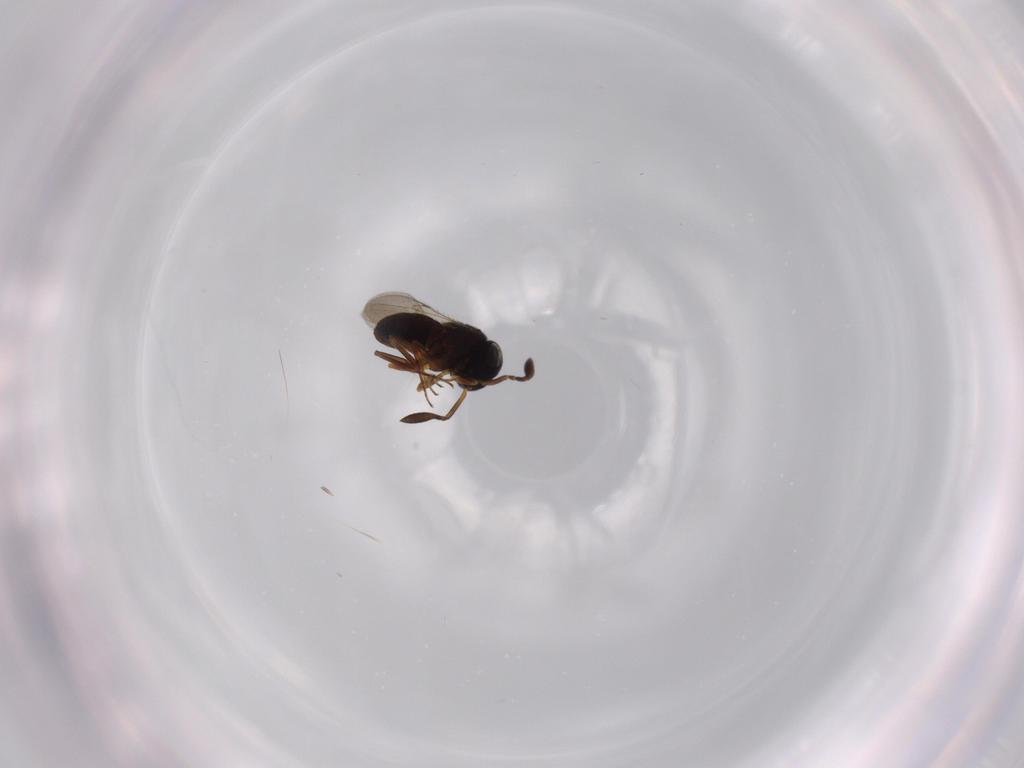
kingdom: Animalia
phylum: Arthropoda
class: Insecta
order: Coleoptera
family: Curculionidae
